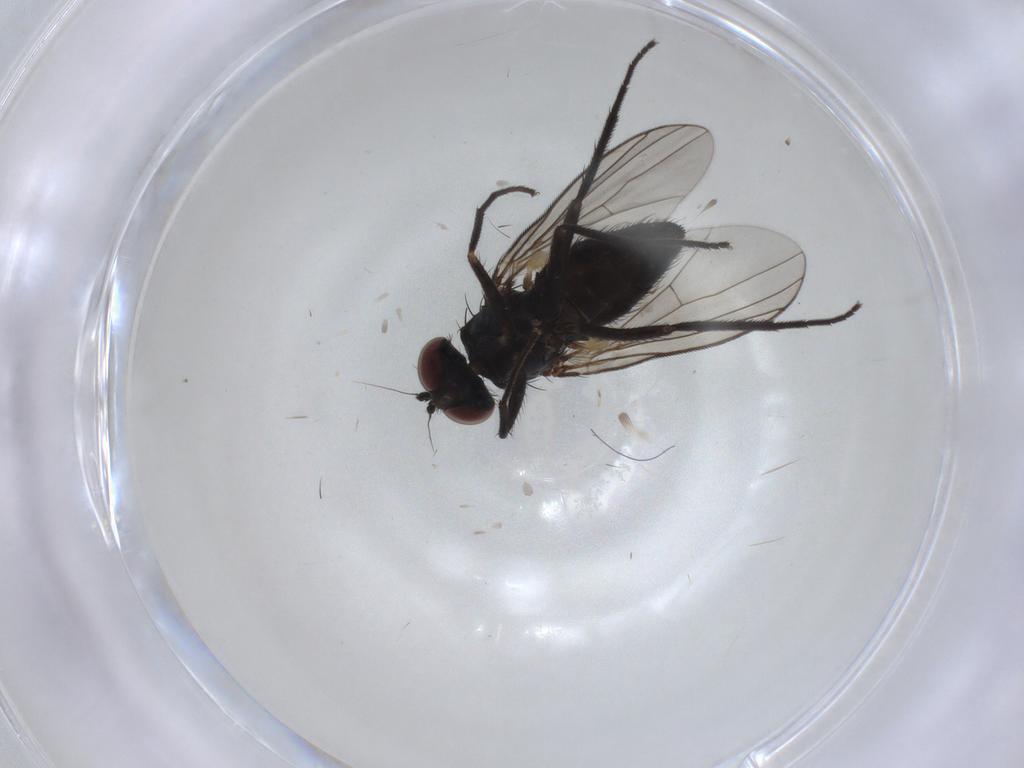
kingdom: Animalia
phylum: Arthropoda
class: Insecta
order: Diptera
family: Dolichopodidae
